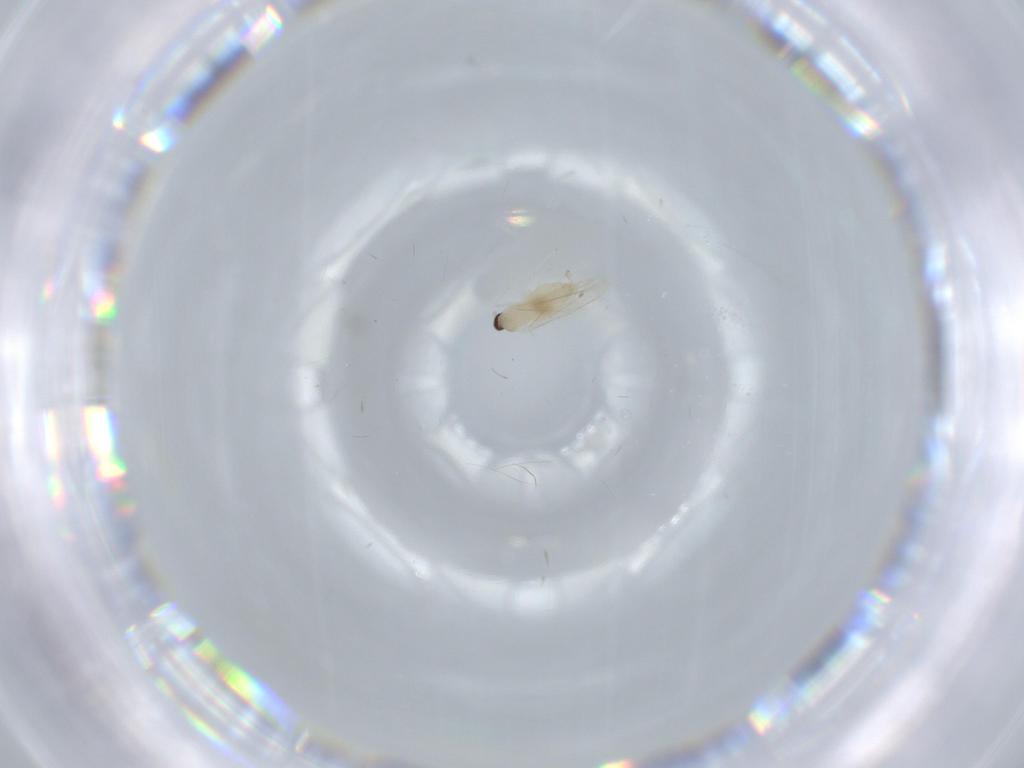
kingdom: Animalia
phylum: Arthropoda
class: Insecta
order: Diptera
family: Cecidomyiidae
